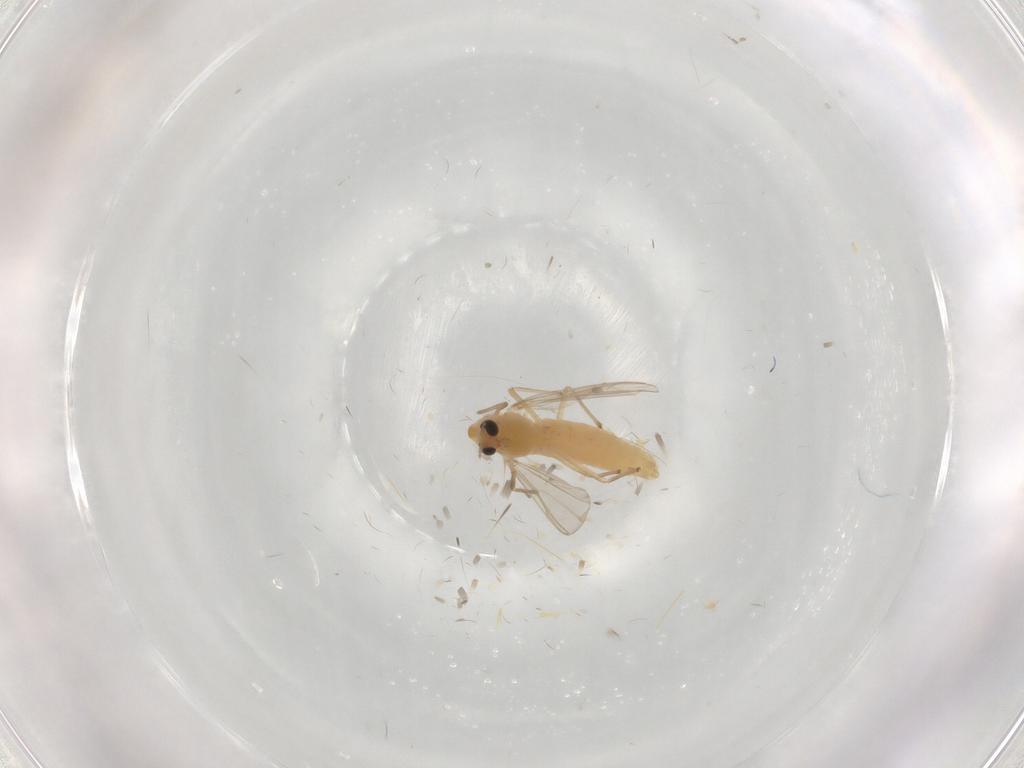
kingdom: Animalia
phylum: Arthropoda
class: Insecta
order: Diptera
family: Chironomidae
